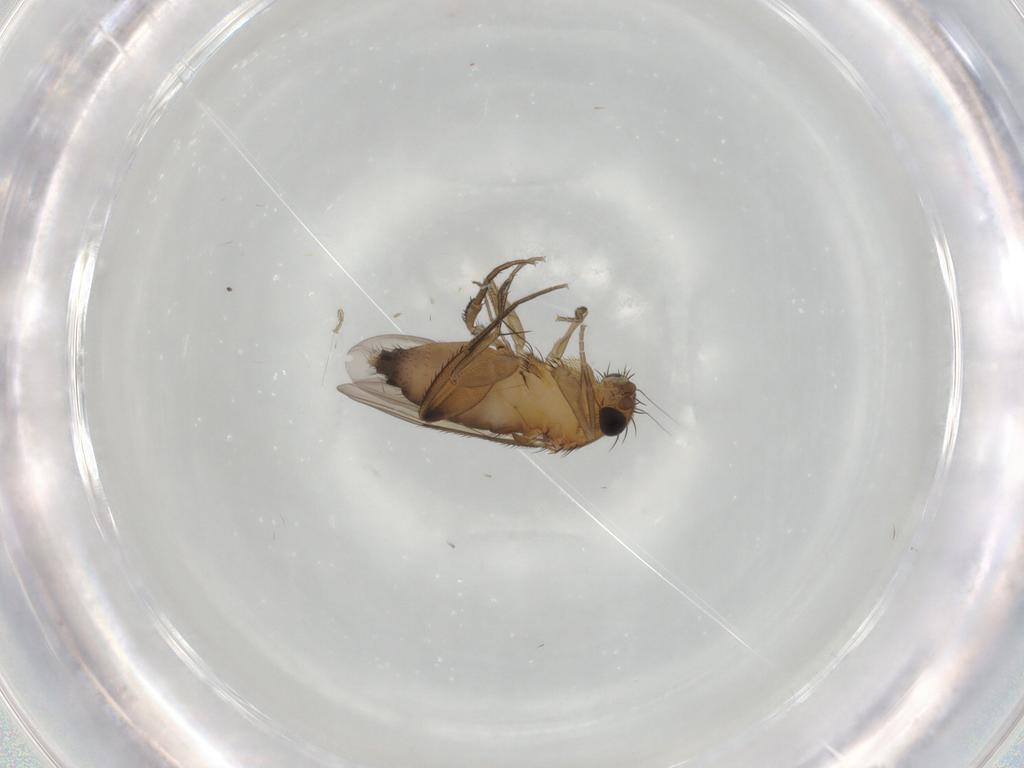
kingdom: Animalia
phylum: Arthropoda
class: Insecta
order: Diptera
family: Phoridae
